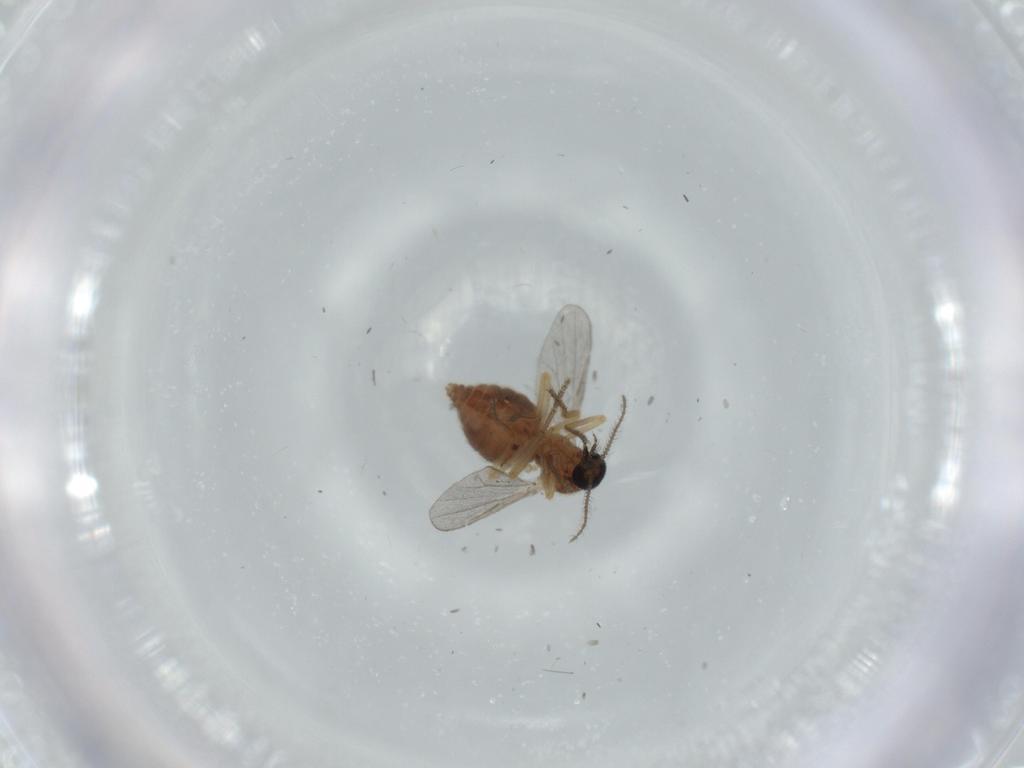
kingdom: Animalia
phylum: Arthropoda
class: Insecta
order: Diptera
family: Ceratopogonidae
